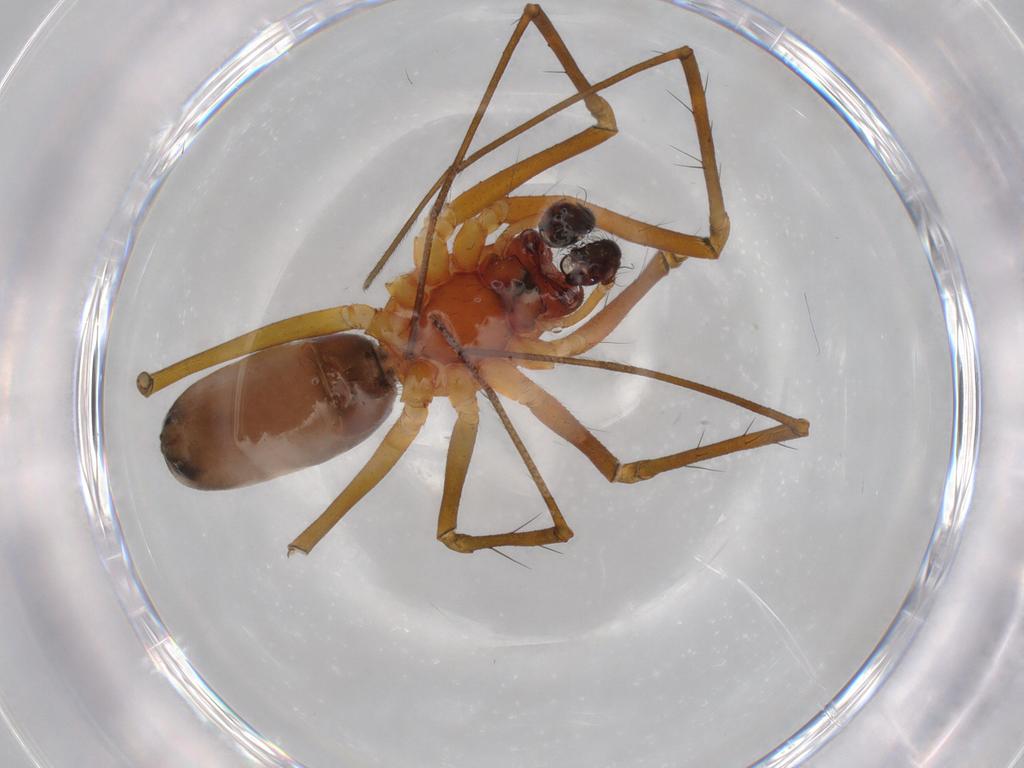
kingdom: Animalia
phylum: Arthropoda
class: Arachnida
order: Araneae
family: Linyphiidae
